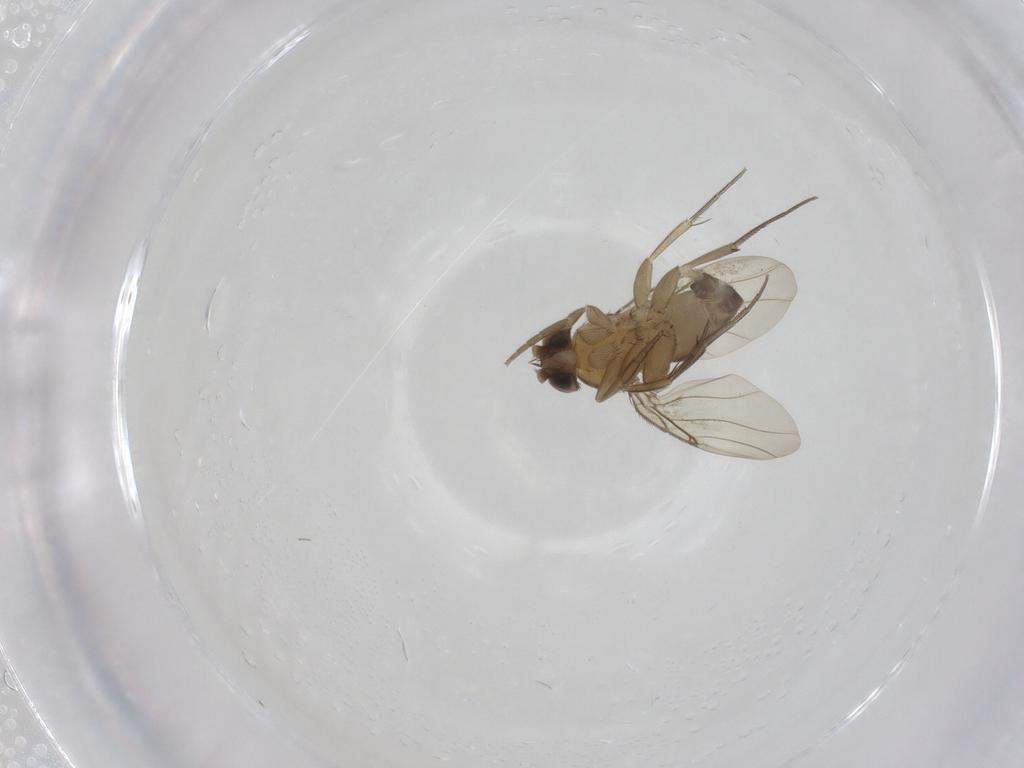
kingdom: Animalia
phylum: Arthropoda
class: Insecta
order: Diptera
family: Phoridae
